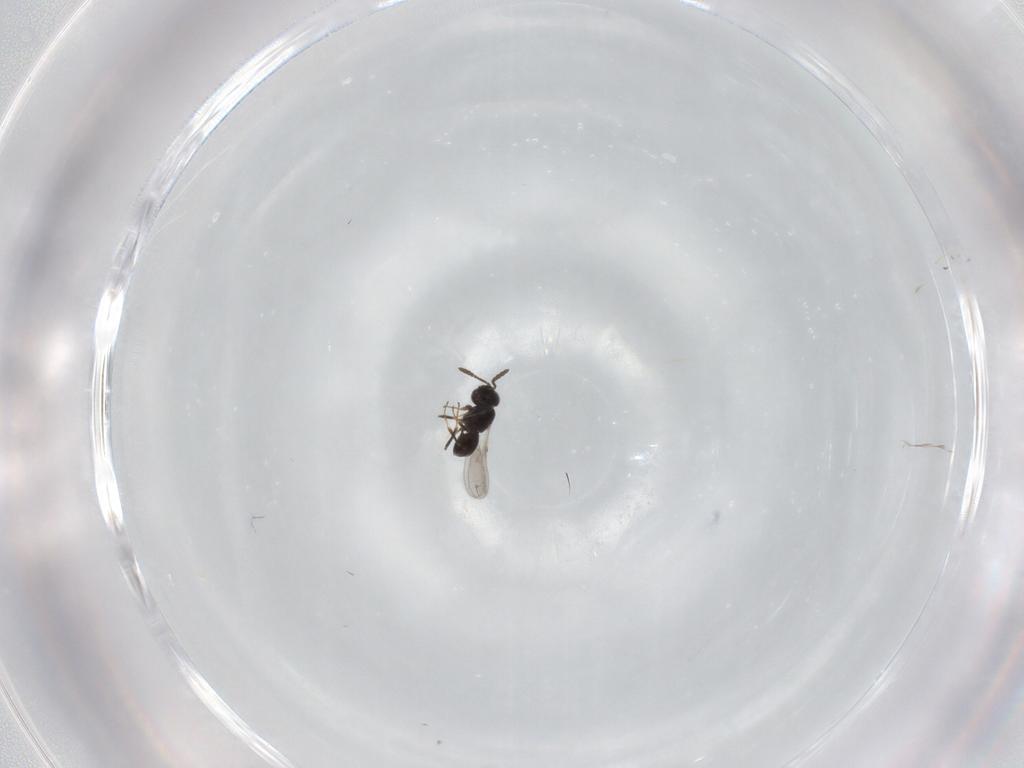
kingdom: Animalia
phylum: Arthropoda
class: Insecta
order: Hymenoptera
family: Scelionidae
